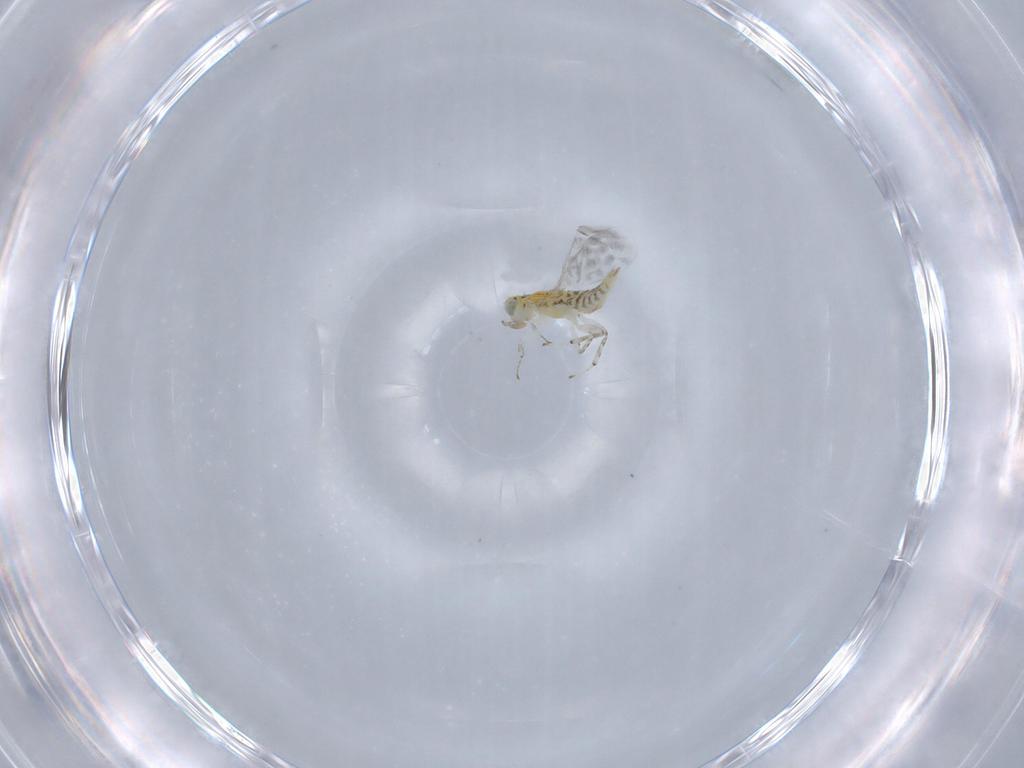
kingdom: Animalia
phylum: Arthropoda
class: Insecta
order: Hymenoptera
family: Aphelinidae
